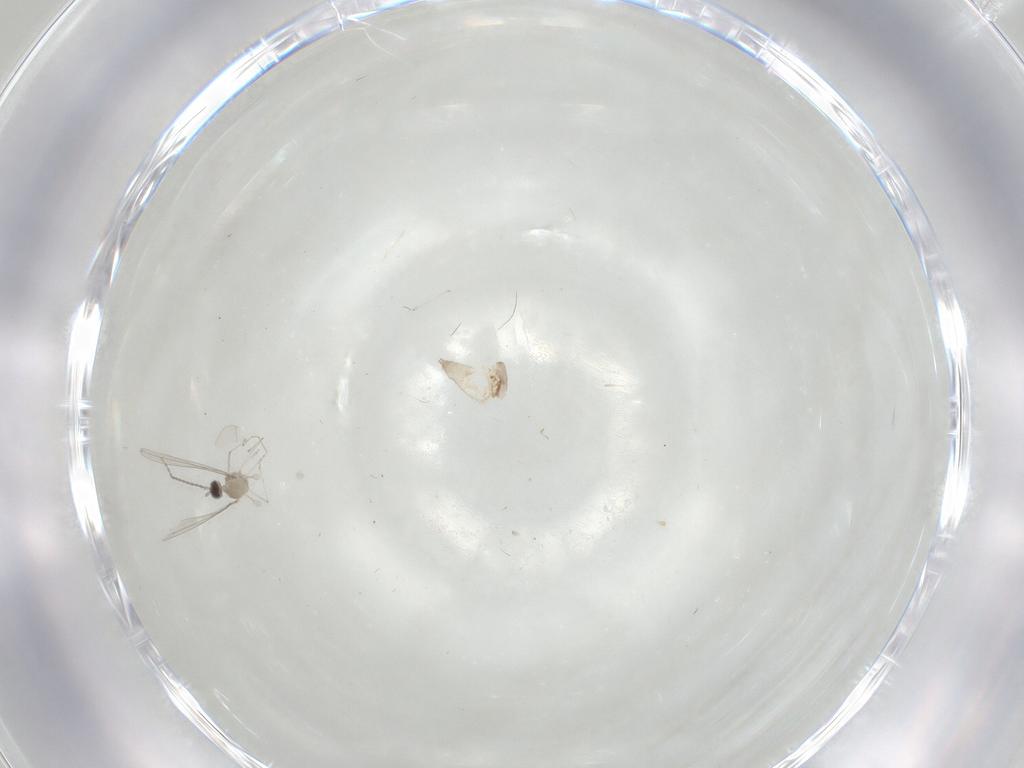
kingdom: Animalia
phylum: Arthropoda
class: Insecta
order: Diptera
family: Cecidomyiidae
